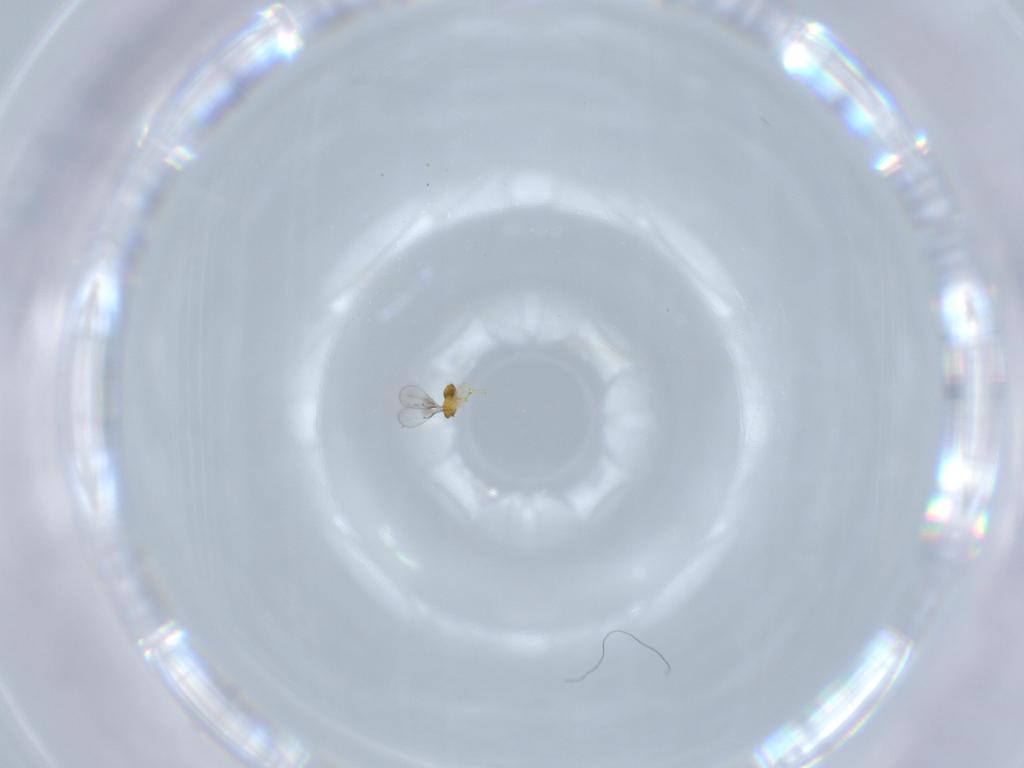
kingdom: Animalia
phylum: Arthropoda
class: Insecta
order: Hymenoptera
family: Trichogrammatidae
